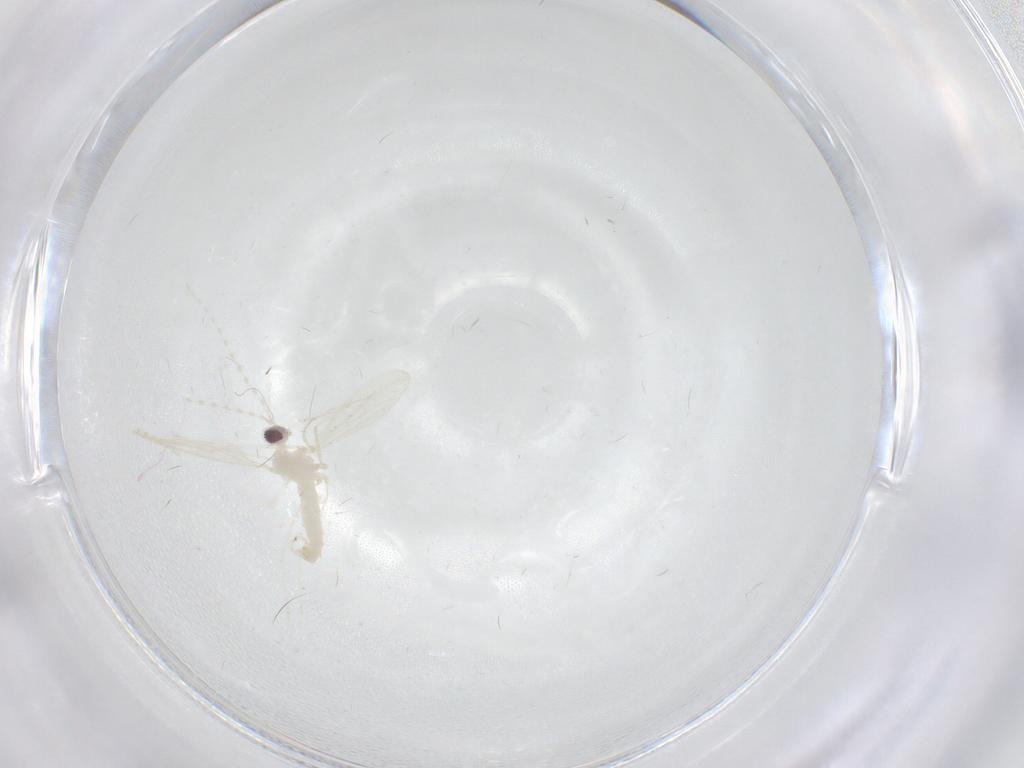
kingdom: Animalia
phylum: Arthropoda
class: Insecta
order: Diptera
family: Cecidomyiidae
